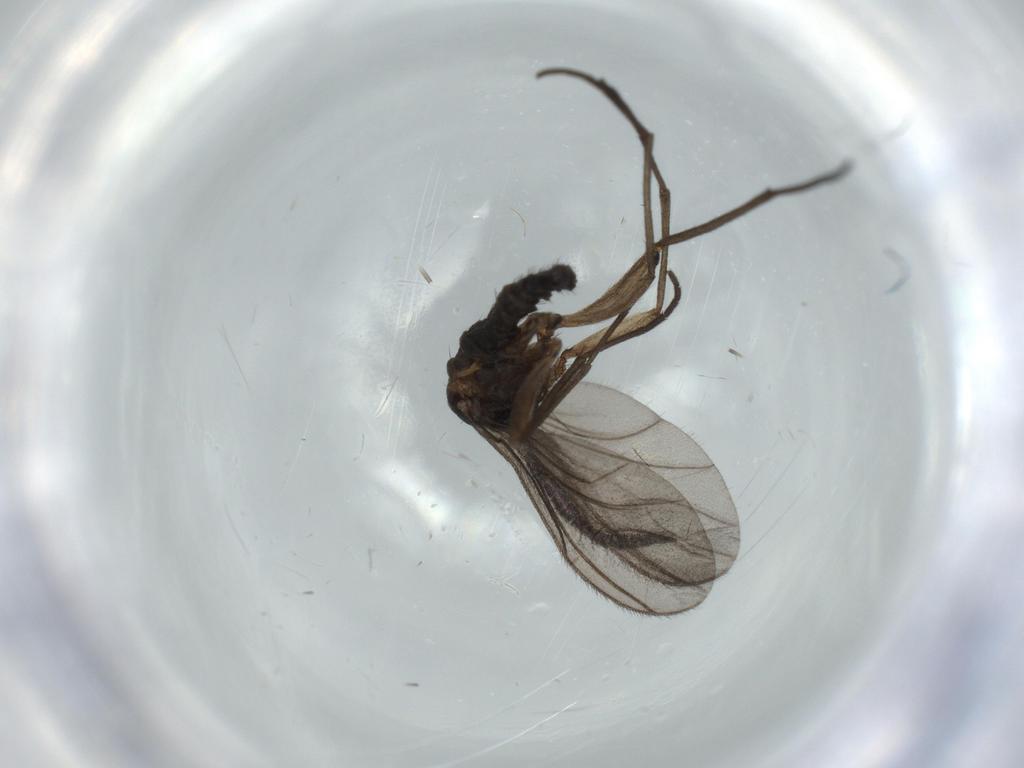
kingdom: Animalia
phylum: Arthropoda
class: Insecta
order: Diptera
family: Sciaridae
